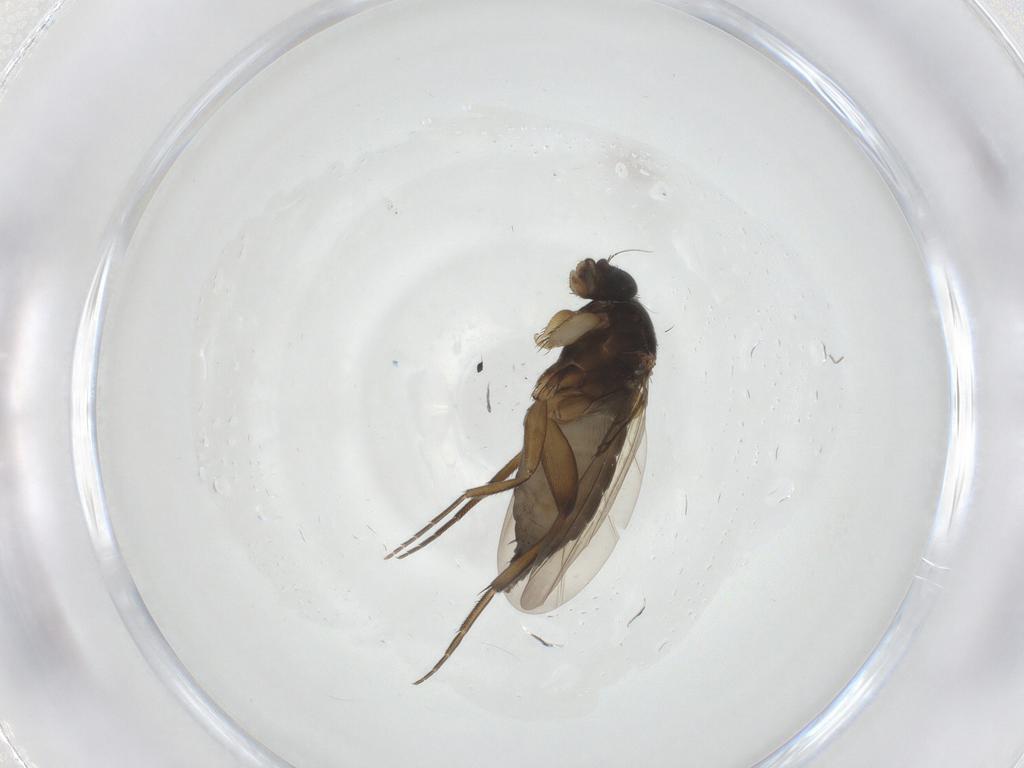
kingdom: Animalia
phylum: Arthropoda
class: Insecta
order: Diptera
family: Phoridae
